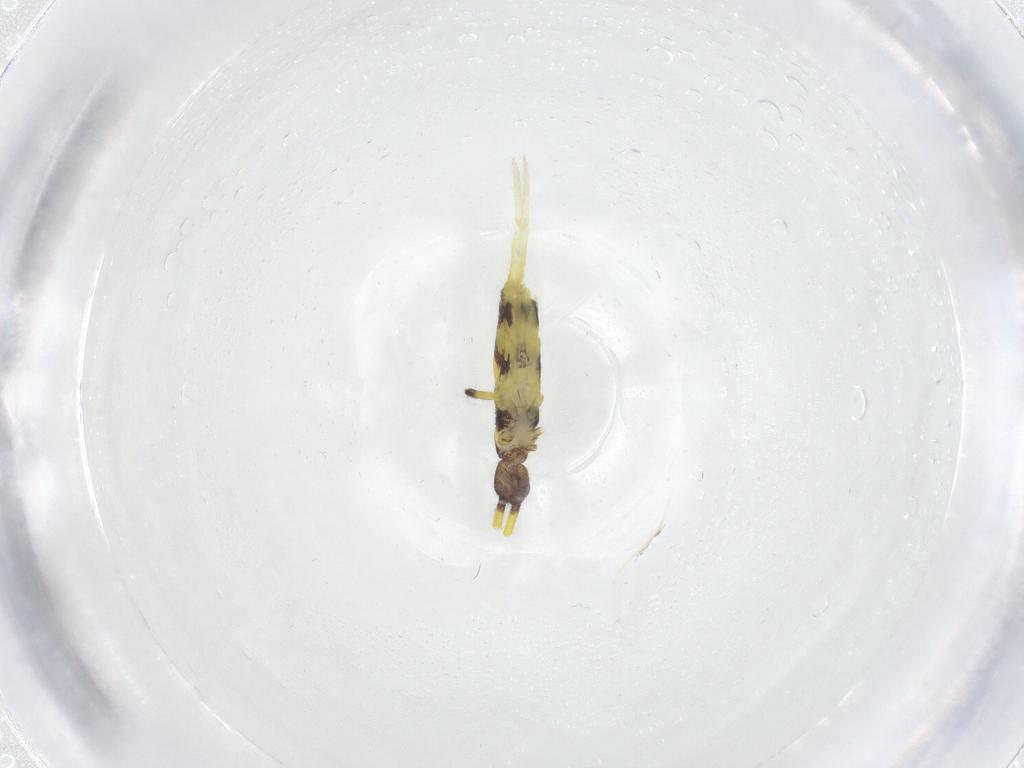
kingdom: Animalia
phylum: Arthropoda
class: Collembola
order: Entomobryomorpha
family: Entomobryidae
